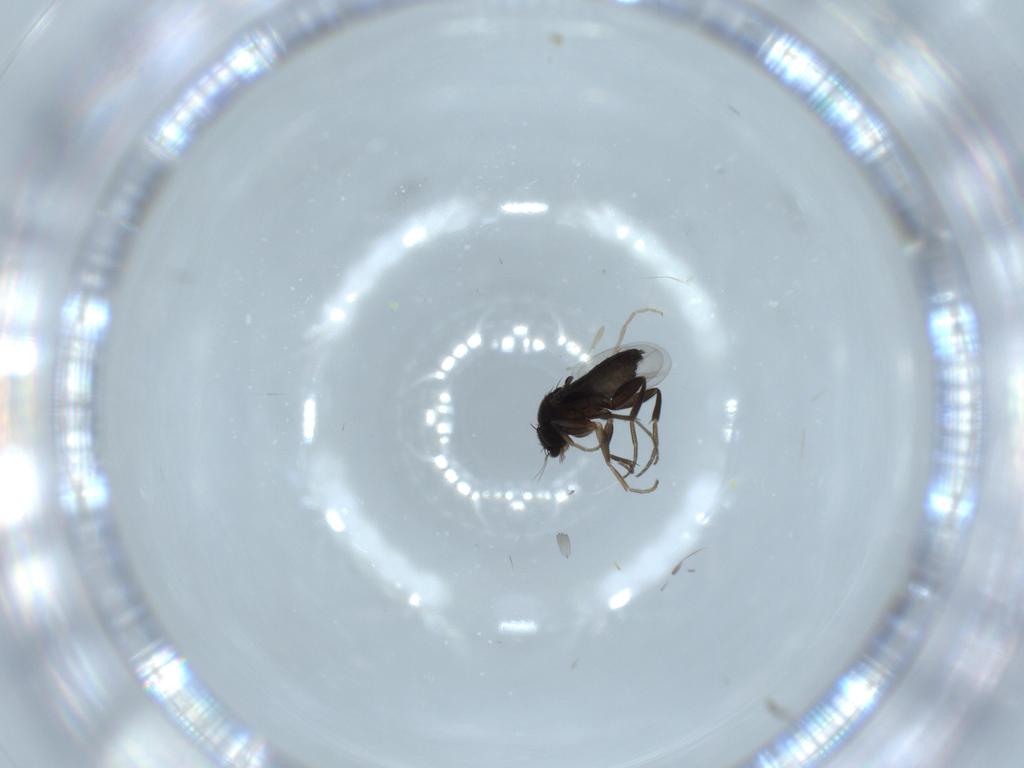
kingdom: Animalia
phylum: Arthropoda
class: Insecta
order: Diptera
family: Phoridae
